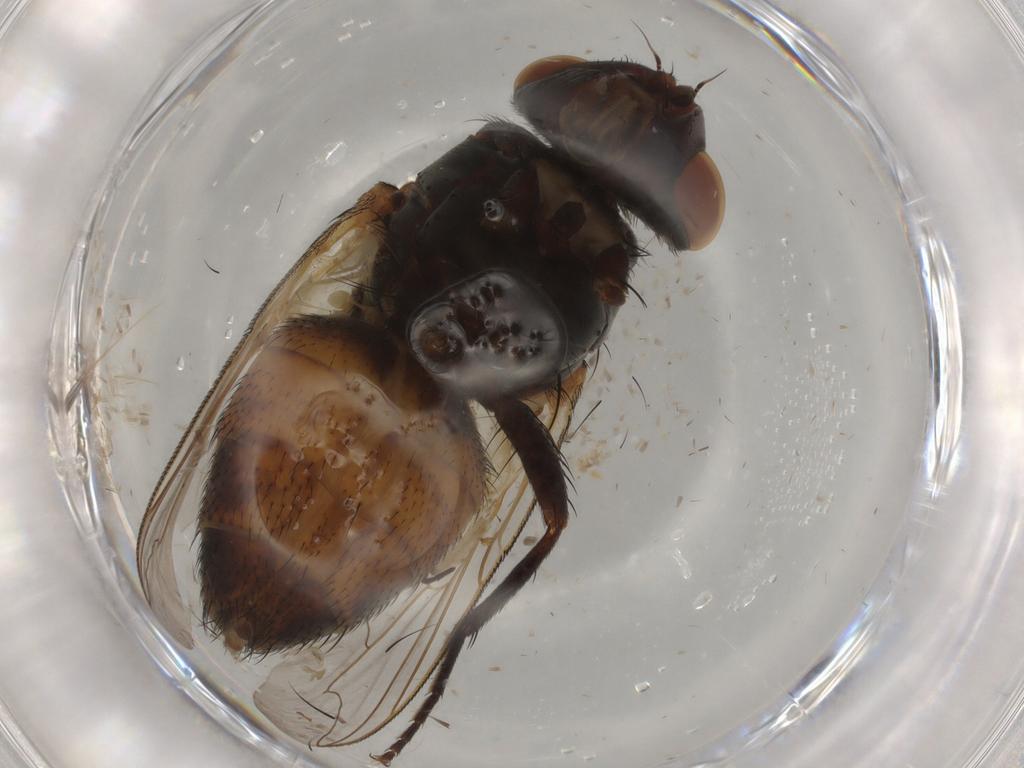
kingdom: Animalia
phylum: Arthropoda
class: Insecta
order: Diptera
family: Sarcophagidae
